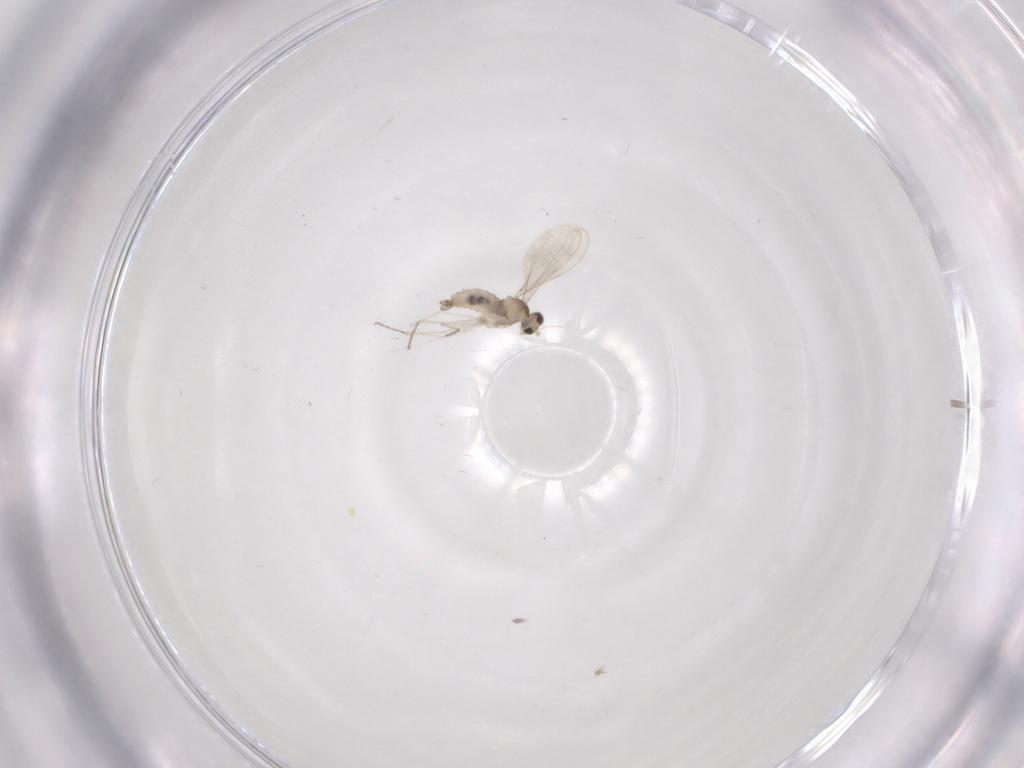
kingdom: Animalia
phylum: Arthropoda
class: Insecta
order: Diptera
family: Cecidomyiidae
